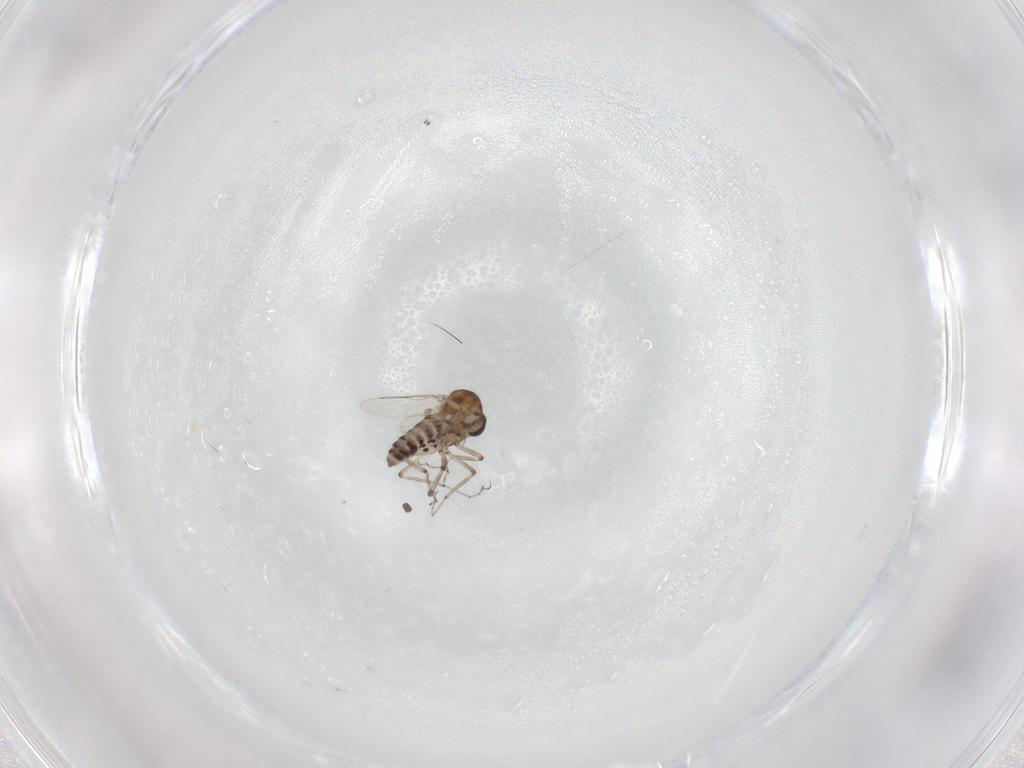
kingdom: Animalia
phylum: Arthropoda
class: Insecta
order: Diptera
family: Ceratopogonidae
